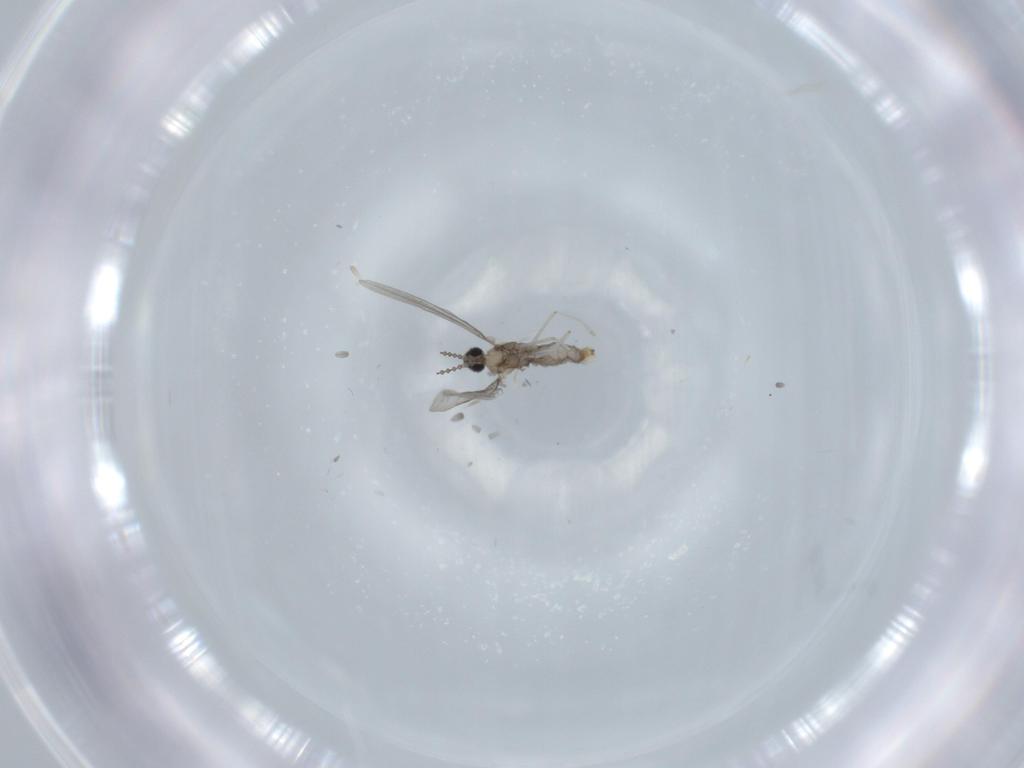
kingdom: Animalia
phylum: Arthropoda
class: Insecta
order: Diptera
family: Cecidomyiidae
